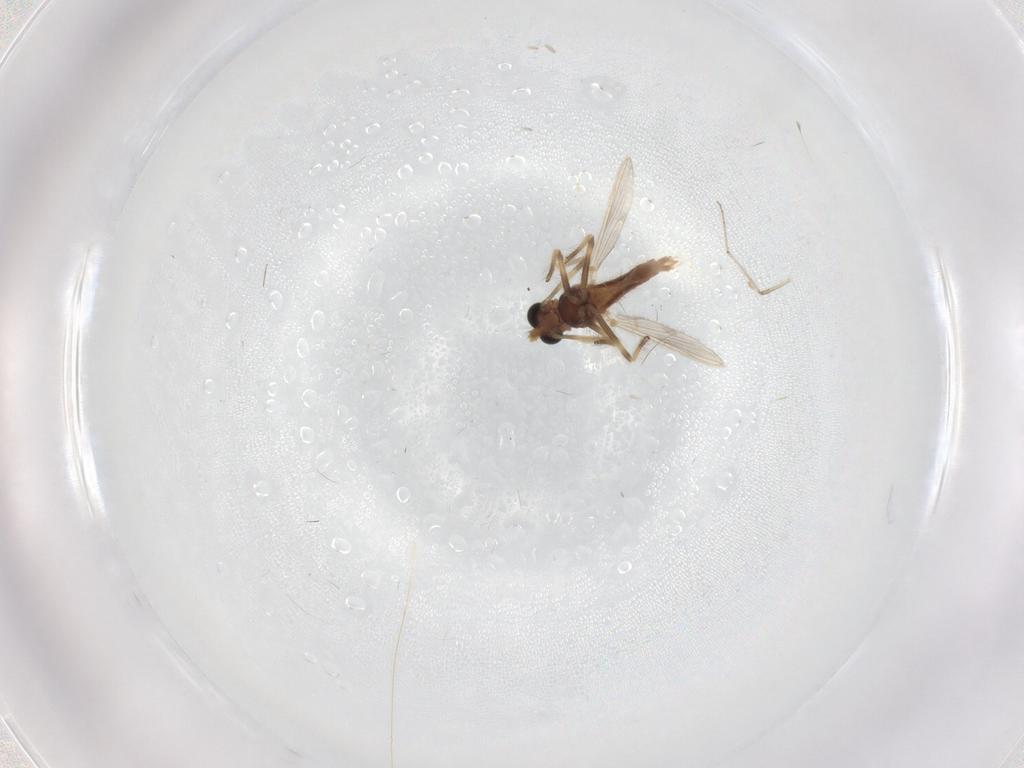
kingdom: Animalia
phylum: Arthropoda
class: Insecta
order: Diptera
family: Chironomidae
